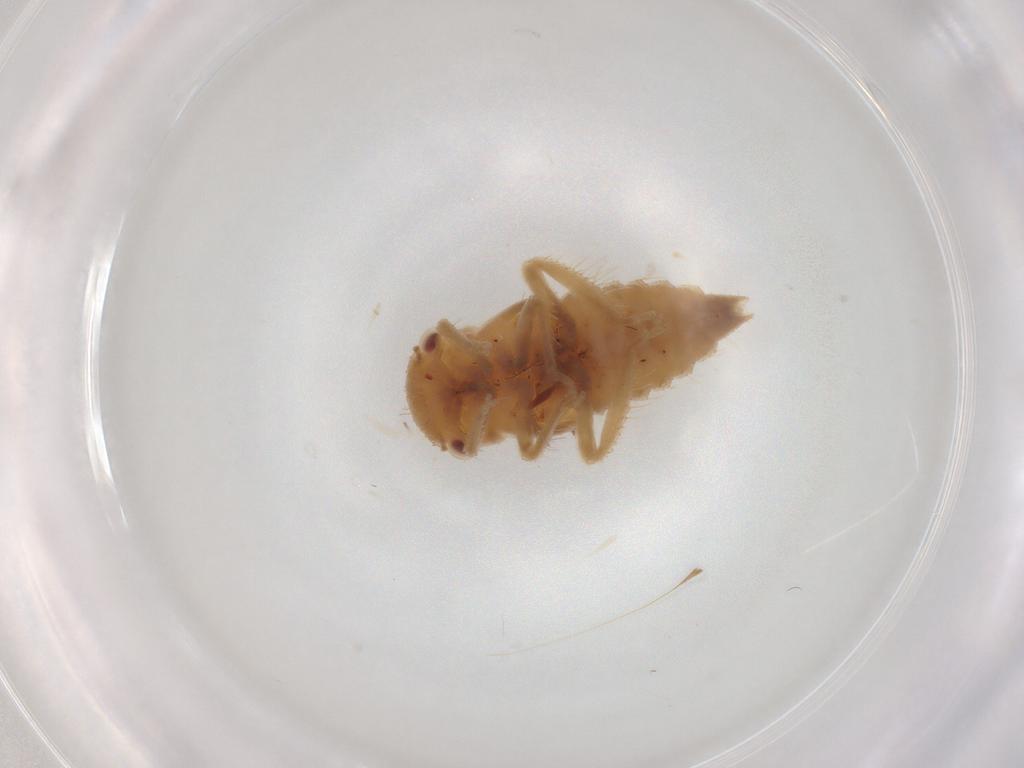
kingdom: Animalia
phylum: Arthropoda
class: Insecta
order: Hemiptera
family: Cicadellidae
